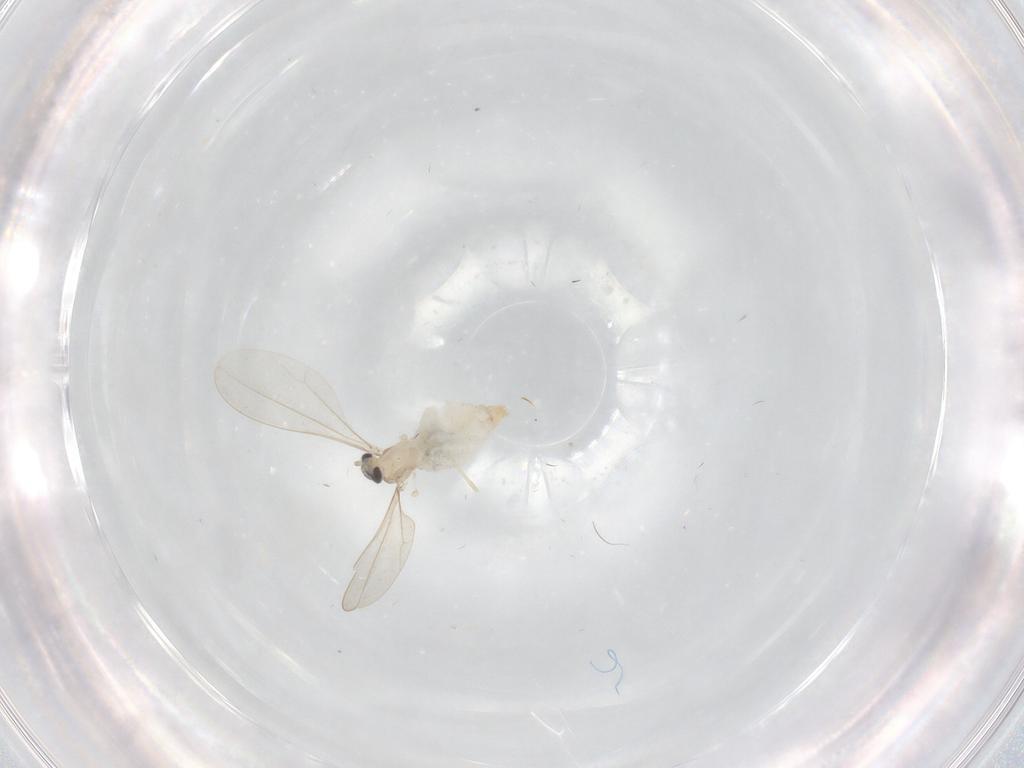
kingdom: Animalia
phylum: Arthropoda
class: Insecta
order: Diptera
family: Cecidomyiidae
